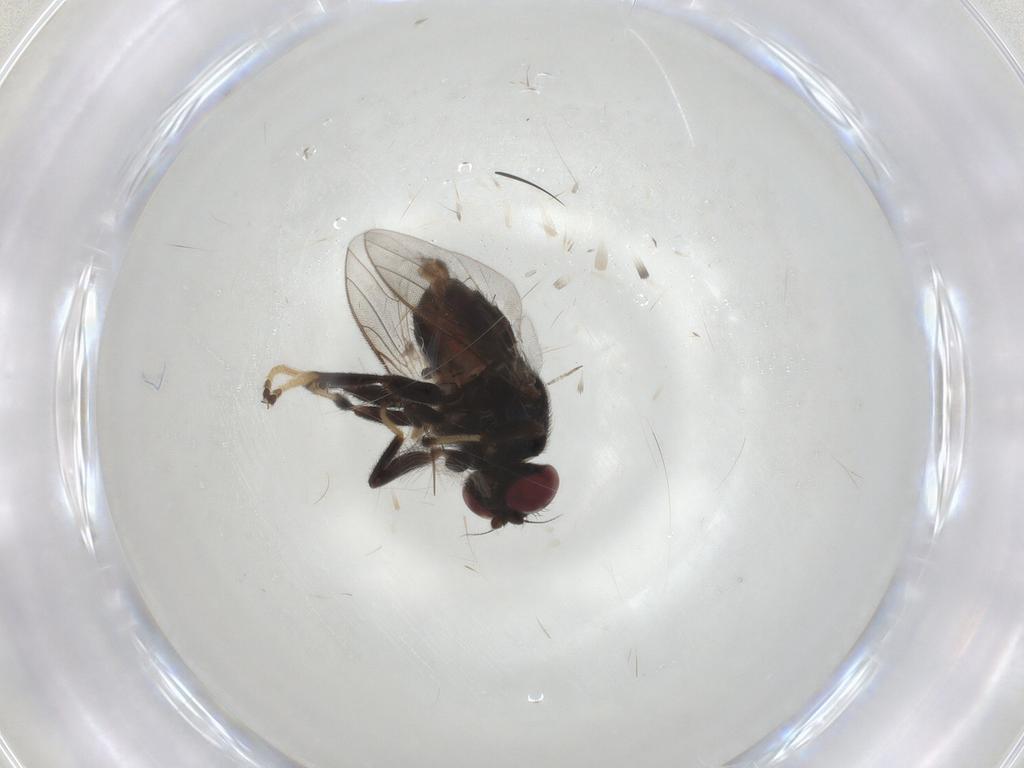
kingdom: Animalia
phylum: Arthropoda
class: Insecta
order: Diptera
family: Chloropidae
